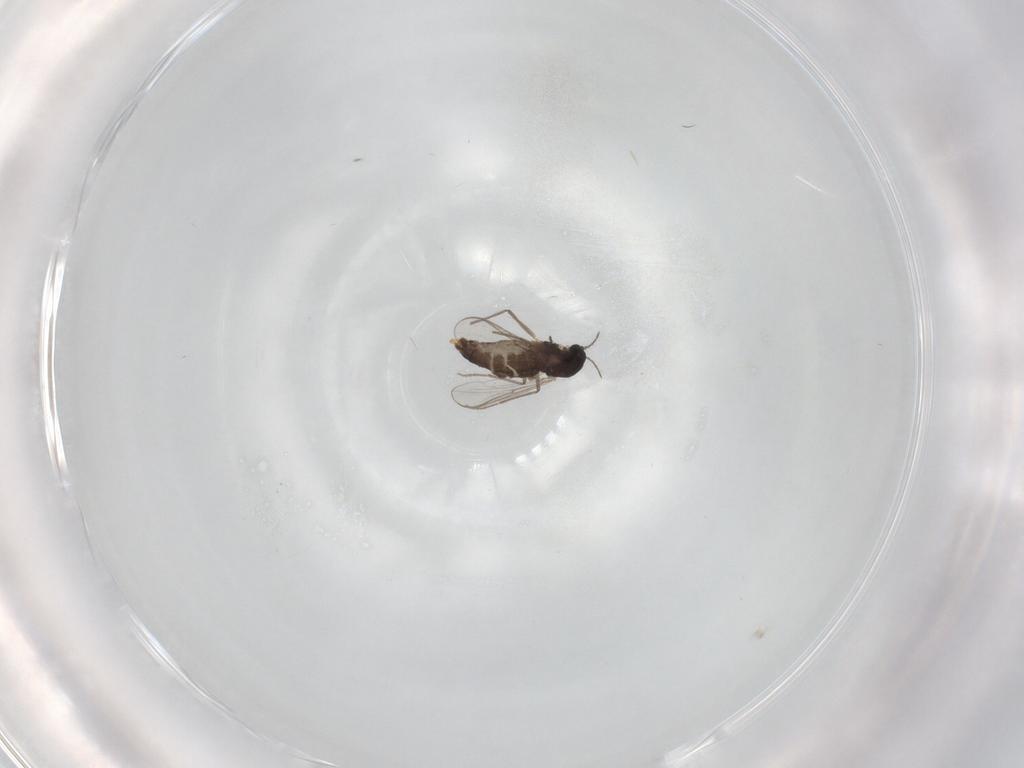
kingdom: Animalia
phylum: Arthropoda
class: Insecta
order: Diptera
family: Chironomidae
